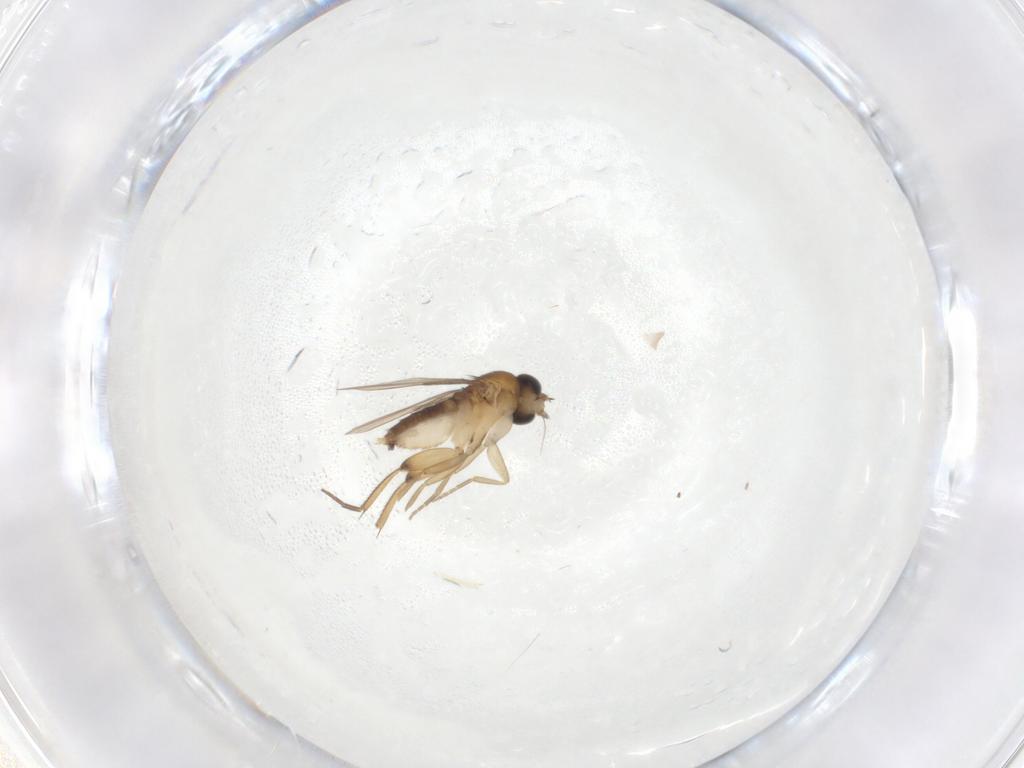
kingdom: Animalia
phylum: Arthropoda
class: Insecta
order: Diptera
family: Phoridae
